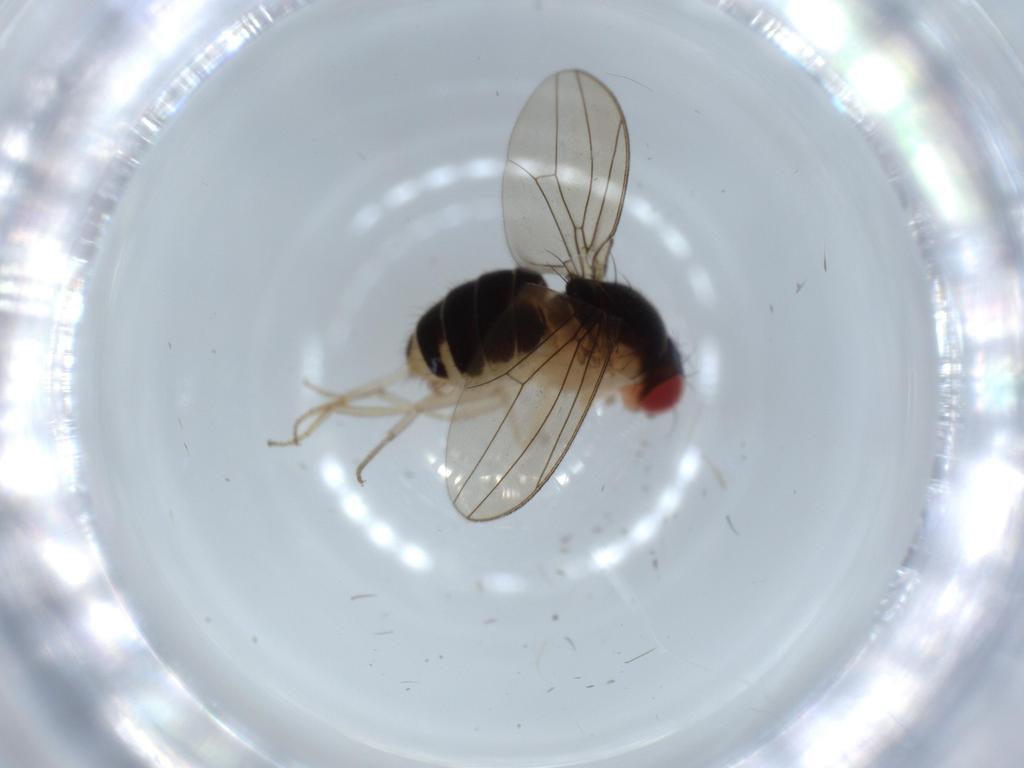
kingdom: Animalia
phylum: Arthropoda
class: Insecta
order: Diptera
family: Drosophilidae
